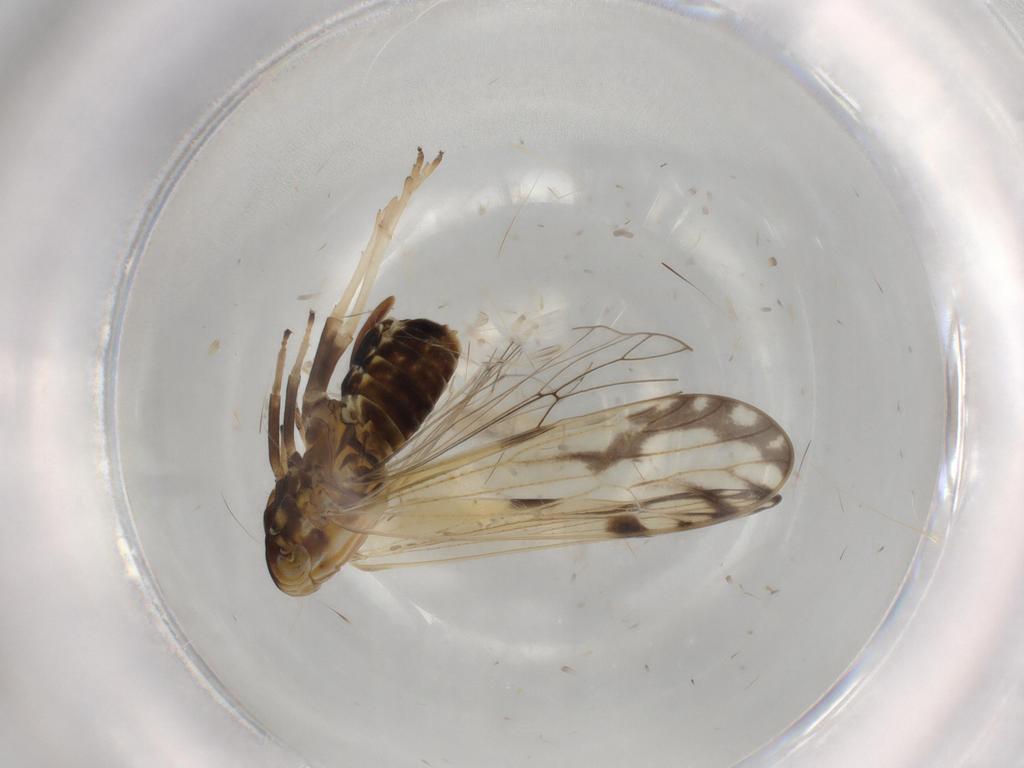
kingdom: Animalia
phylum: Arthropoda
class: Insecta
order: Hemiptera
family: Delphacidae
